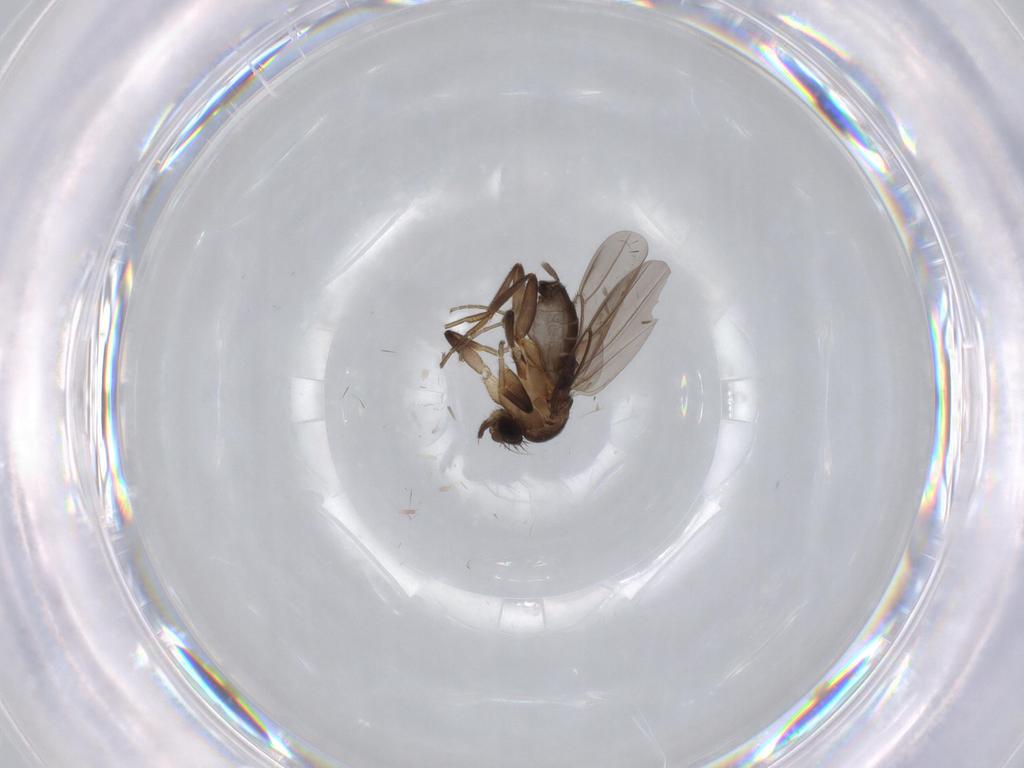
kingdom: Animalia
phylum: Arthropoda
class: Insecta
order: Diptera
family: Phoridae
